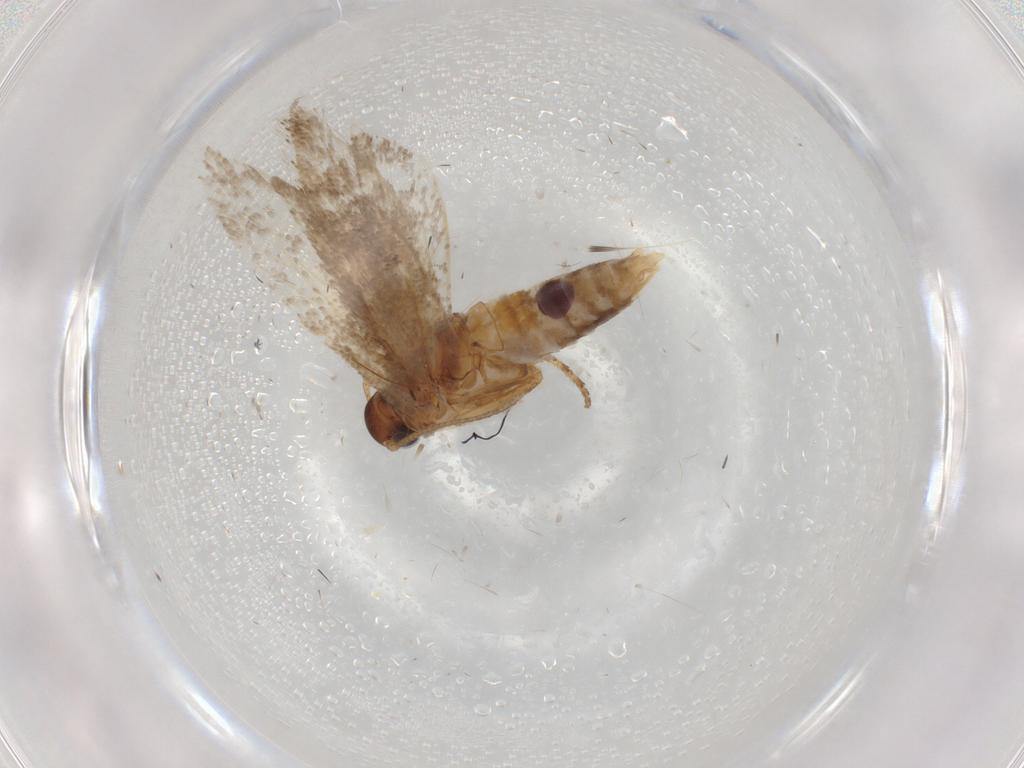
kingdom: Animalia
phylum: Arthropoda
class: Insecta
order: Lepidoptera
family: Gelechiidae
